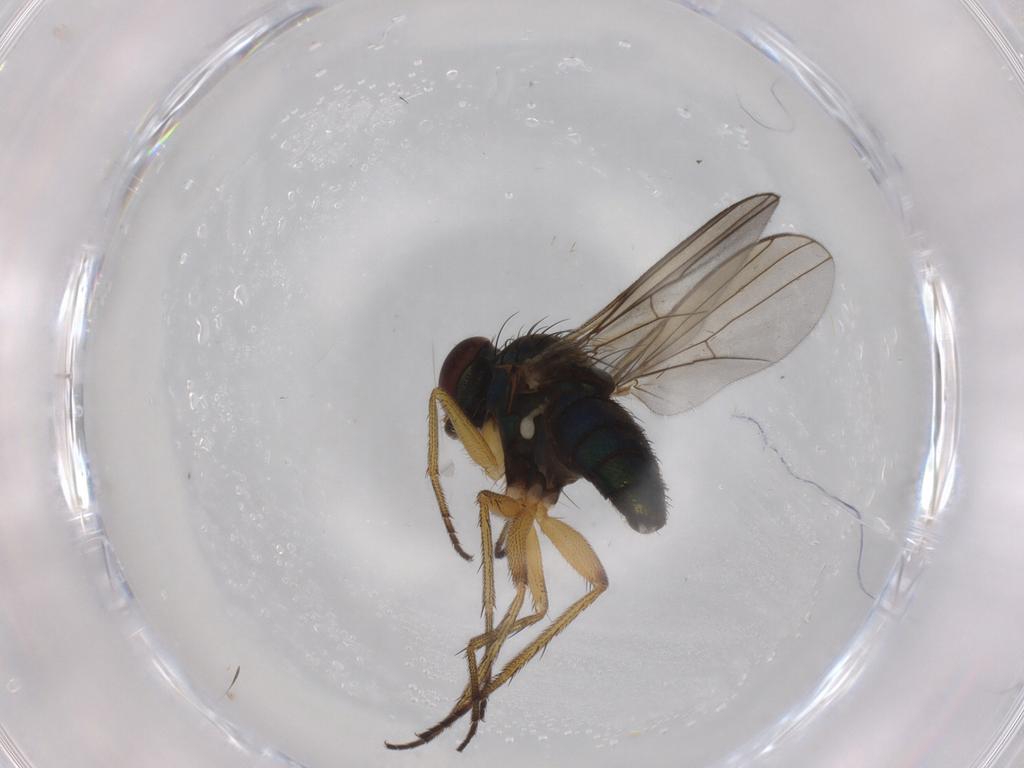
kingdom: Animalia
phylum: Arthropoda
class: Insecta
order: Diptera
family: Dolichopodidae
